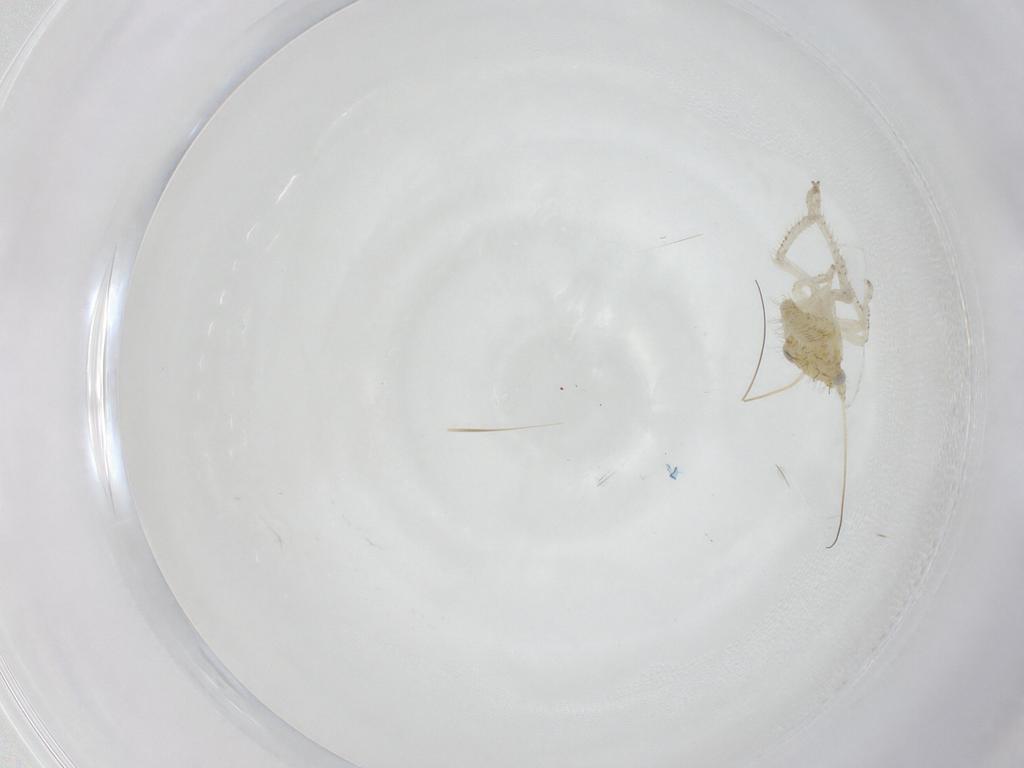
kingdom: Animalia
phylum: Arthropoda
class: Insecta
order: Hemiptera
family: Cicadellidae
